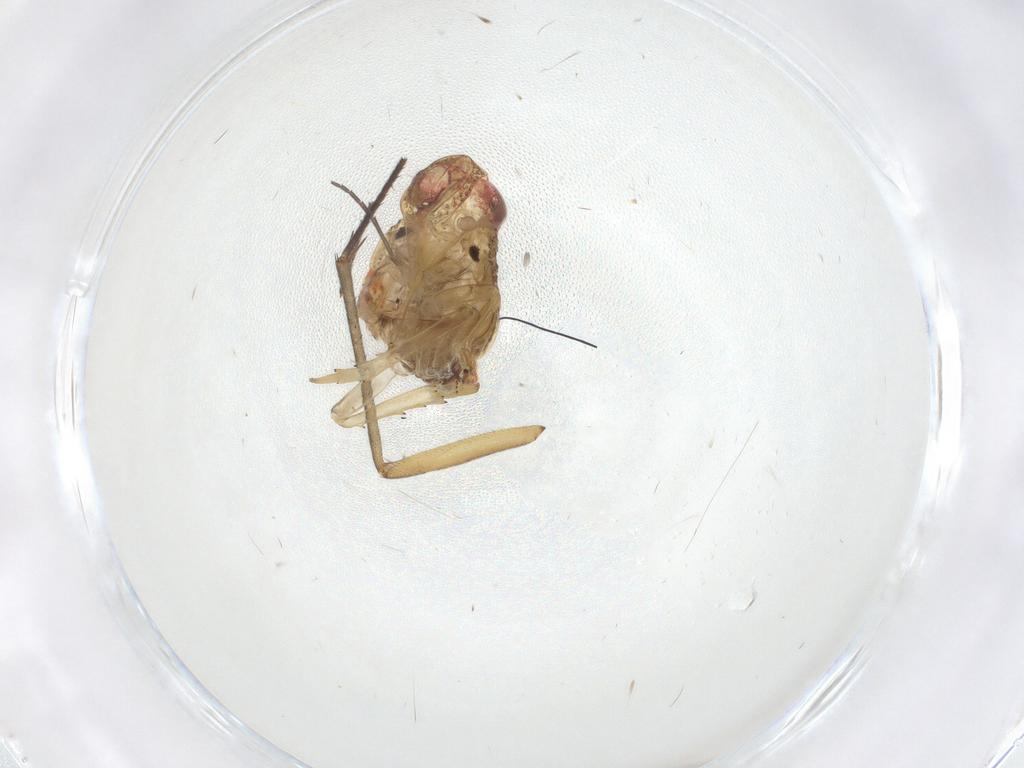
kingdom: Animalia
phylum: Arthropoda
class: Insecta
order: Hemiptera
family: Issidae
